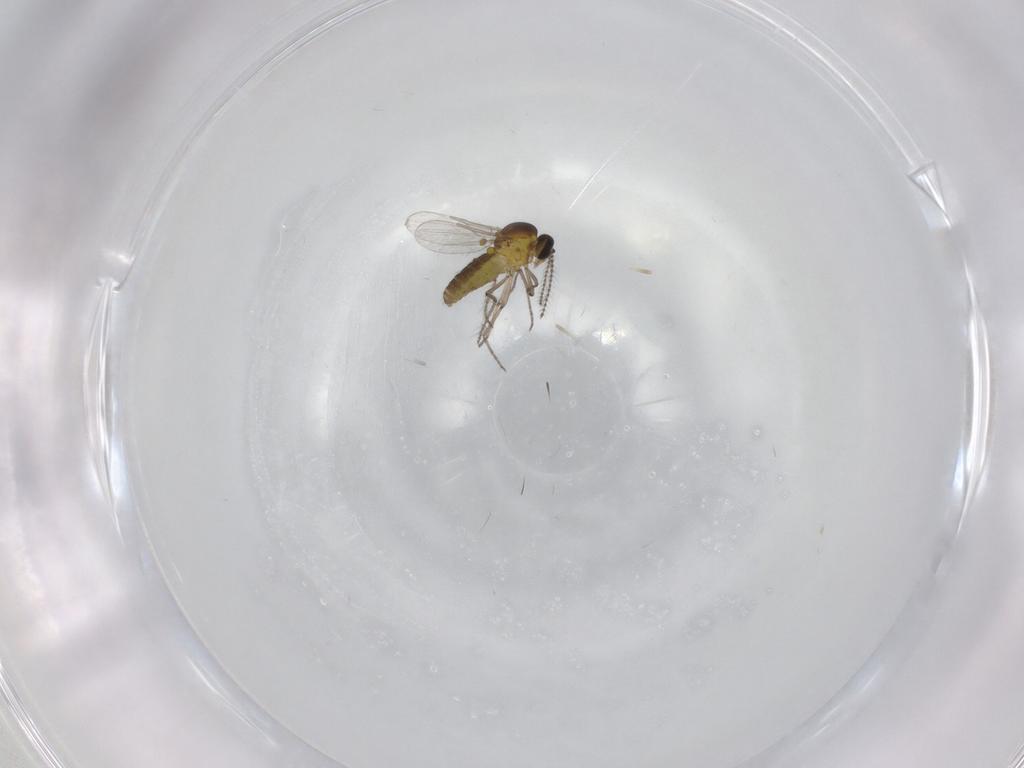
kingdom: Animalia
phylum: Arthropoda
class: Insecta
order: Diptera
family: Ceratopogonidae
